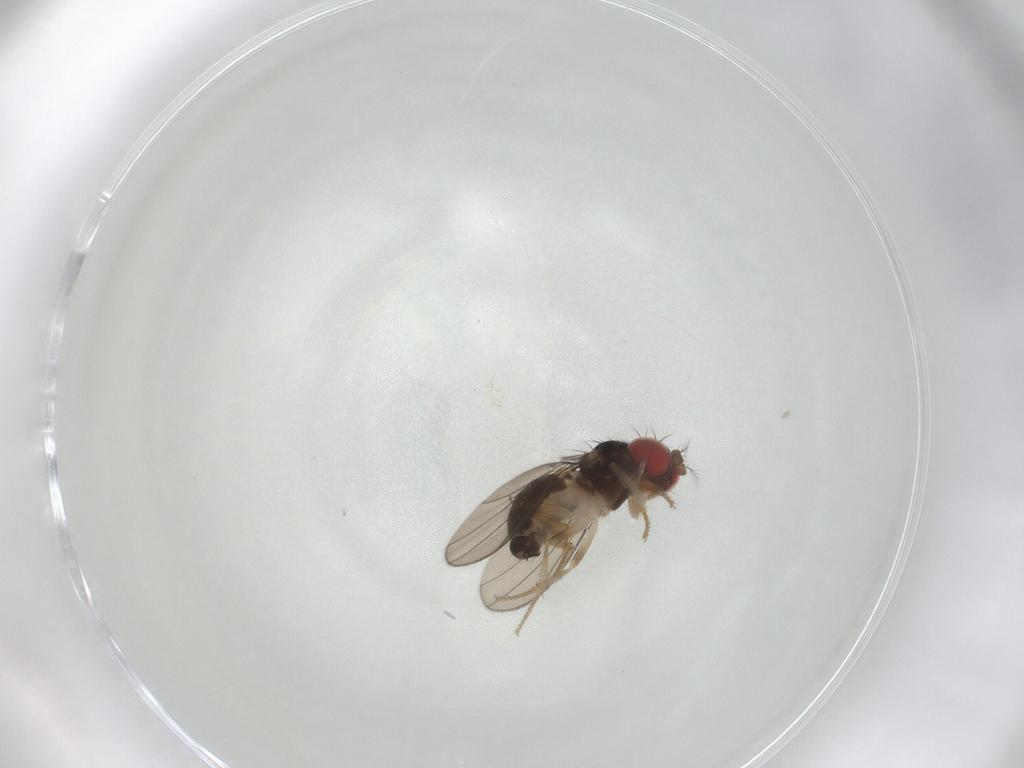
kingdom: Animalia
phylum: Arthropoda
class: Insecta
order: Diptera
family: Drosophilidae
